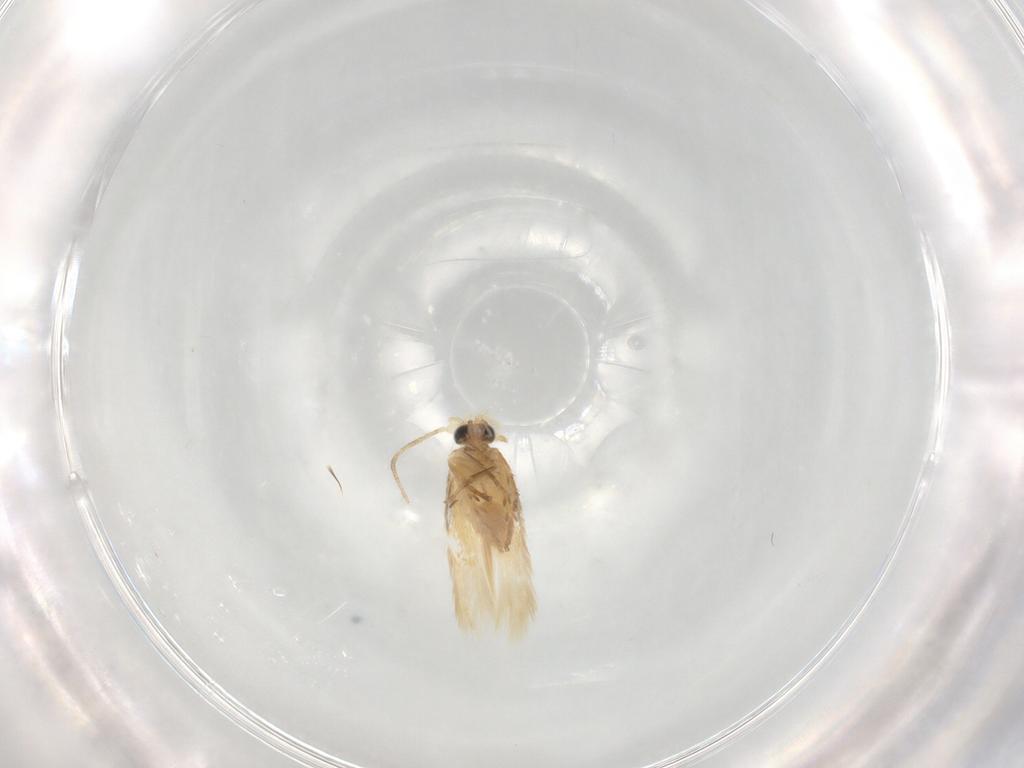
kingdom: Animalia
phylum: Arthropoda
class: Insecta
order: Lepidoptera
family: Nepticulidae
